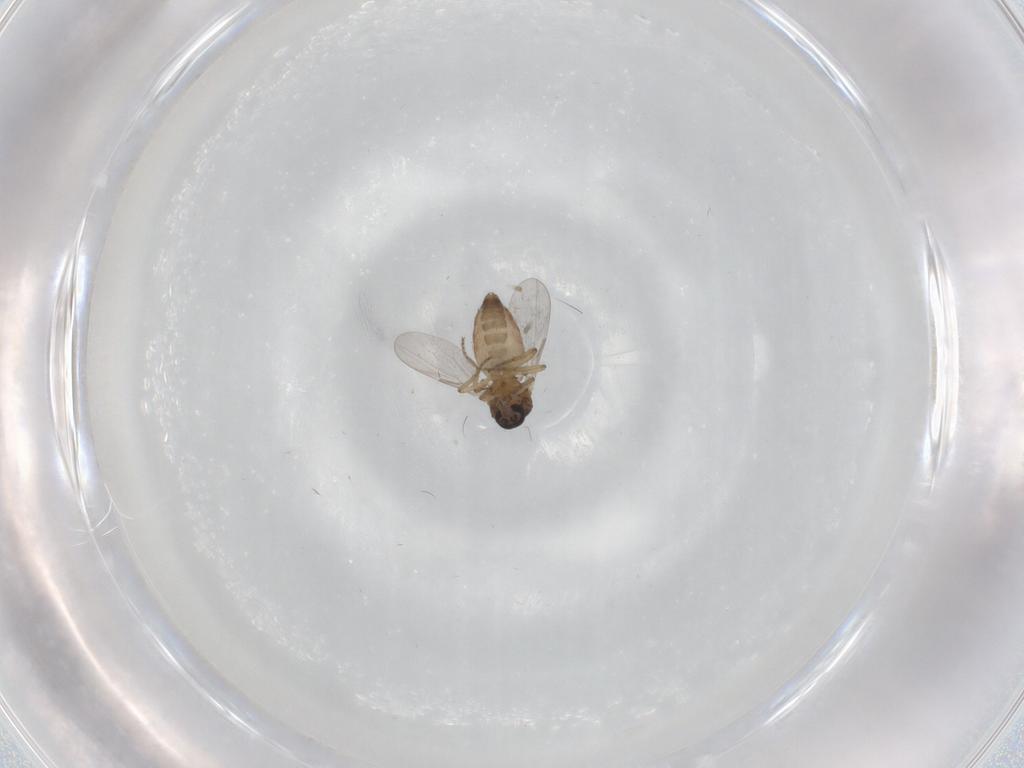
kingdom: Animalia
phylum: Arthropoda
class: Insecta
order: Diptera
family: Ceratopogonidae
